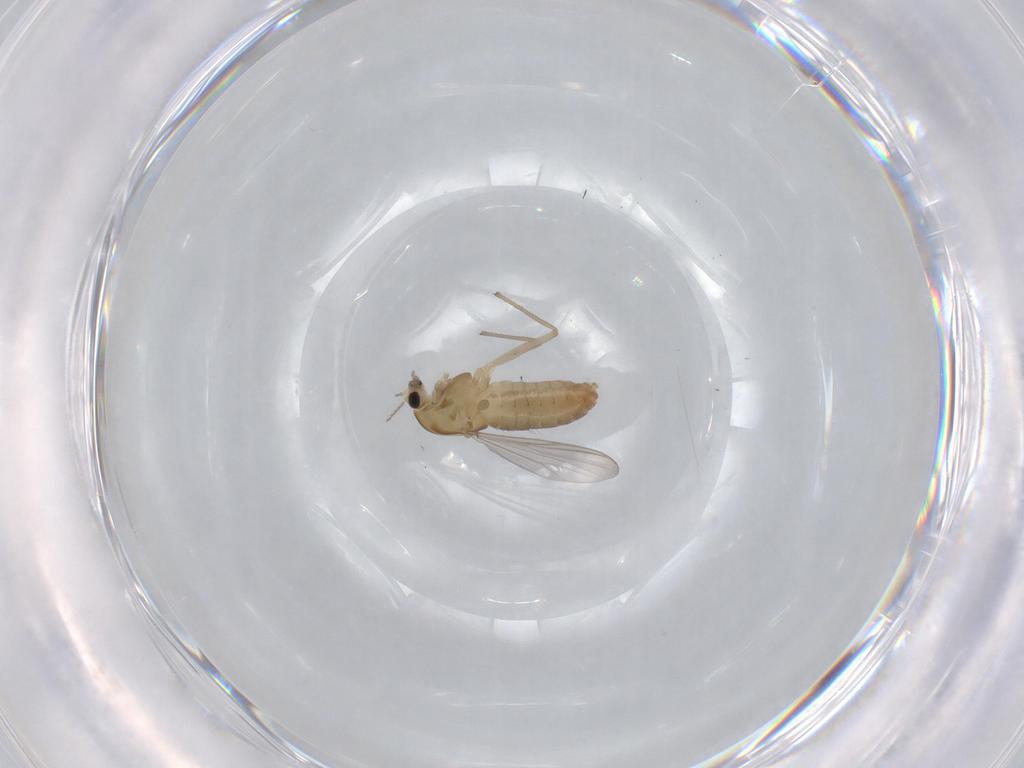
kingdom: Animalia
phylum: Arthropoda
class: Insecta
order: Diptera
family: Chironomidae
